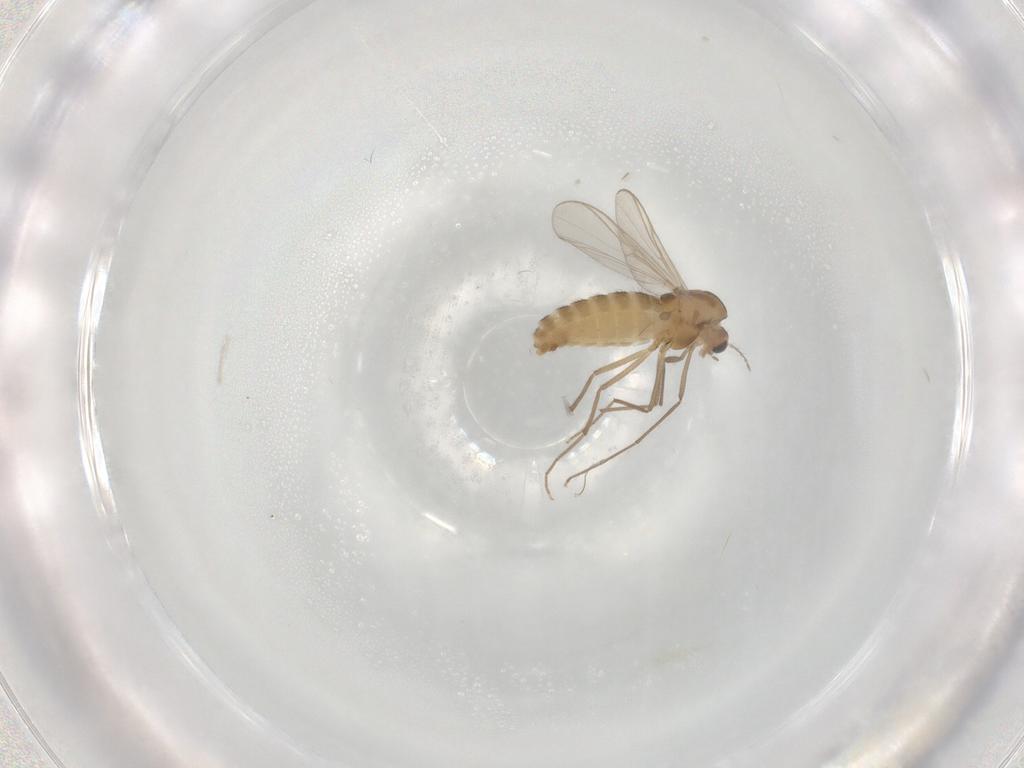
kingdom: Animalia
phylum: Arthropoda
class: Insecta
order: Diptera
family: Chironomidae
